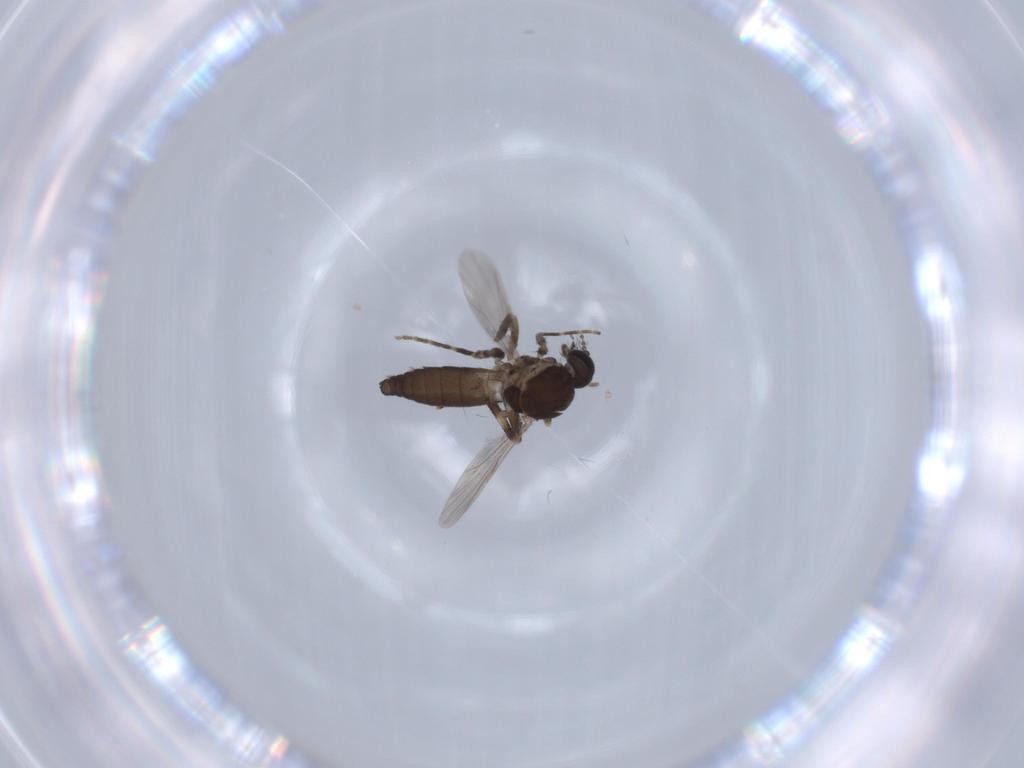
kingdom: Animalia
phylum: Arthropoda
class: Insecta
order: Diptera
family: Ceratopogonidae
